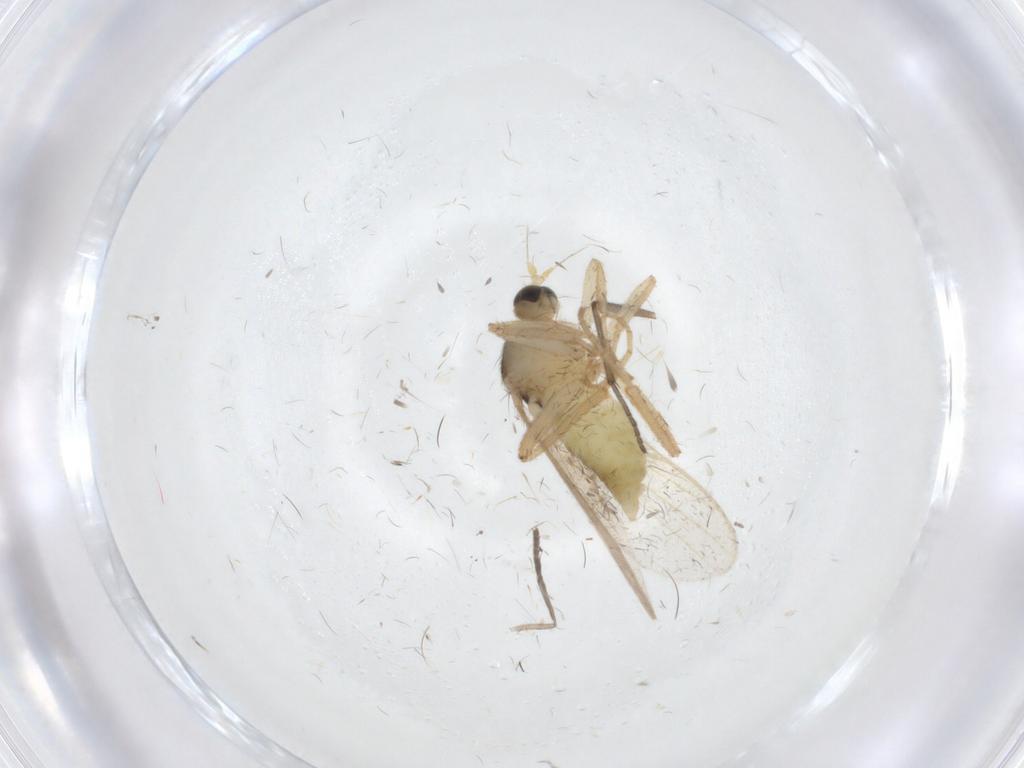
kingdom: Animalia
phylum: Arthropoda
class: Insecta
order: Diptera
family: Hybotidae
